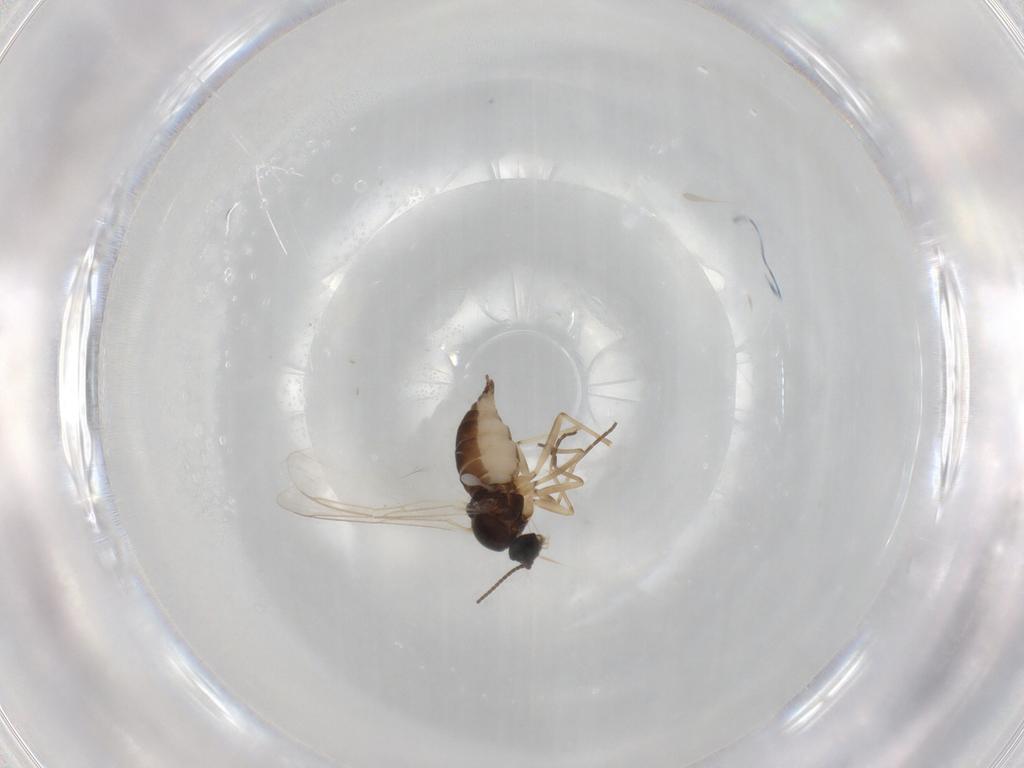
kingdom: Animalia
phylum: Arthropoda
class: Insecta
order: Diptera
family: Sciaridae
